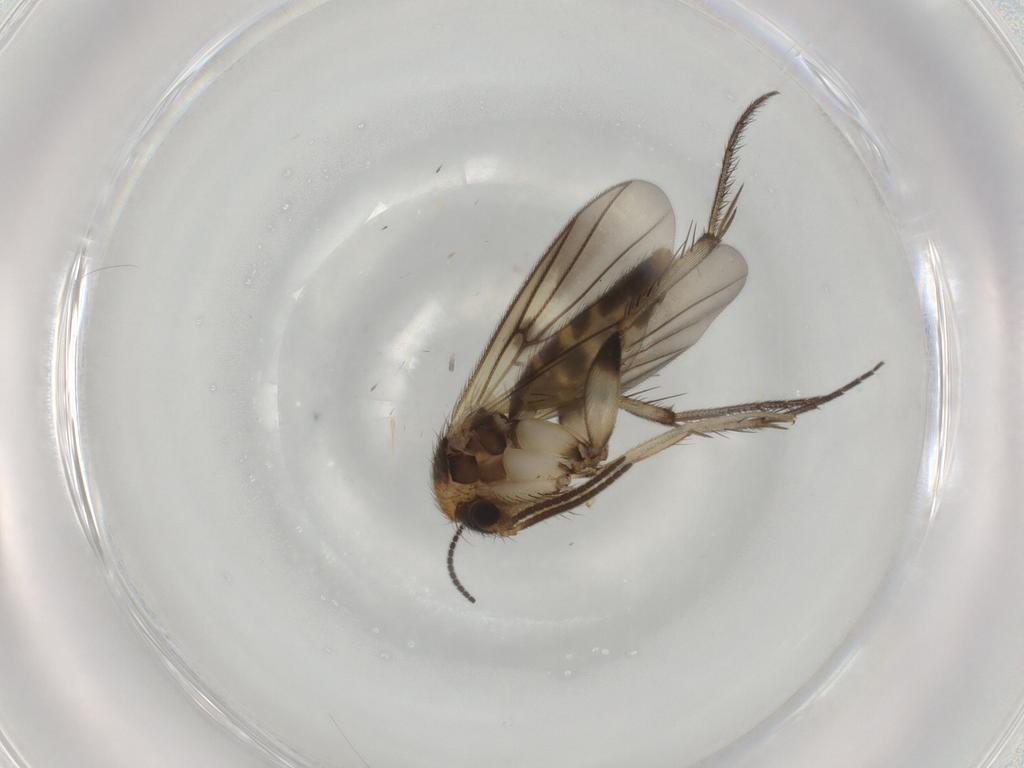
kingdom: Animalia
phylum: Arthropoda
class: Insecta
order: Diptera
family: Mycetophilidae
